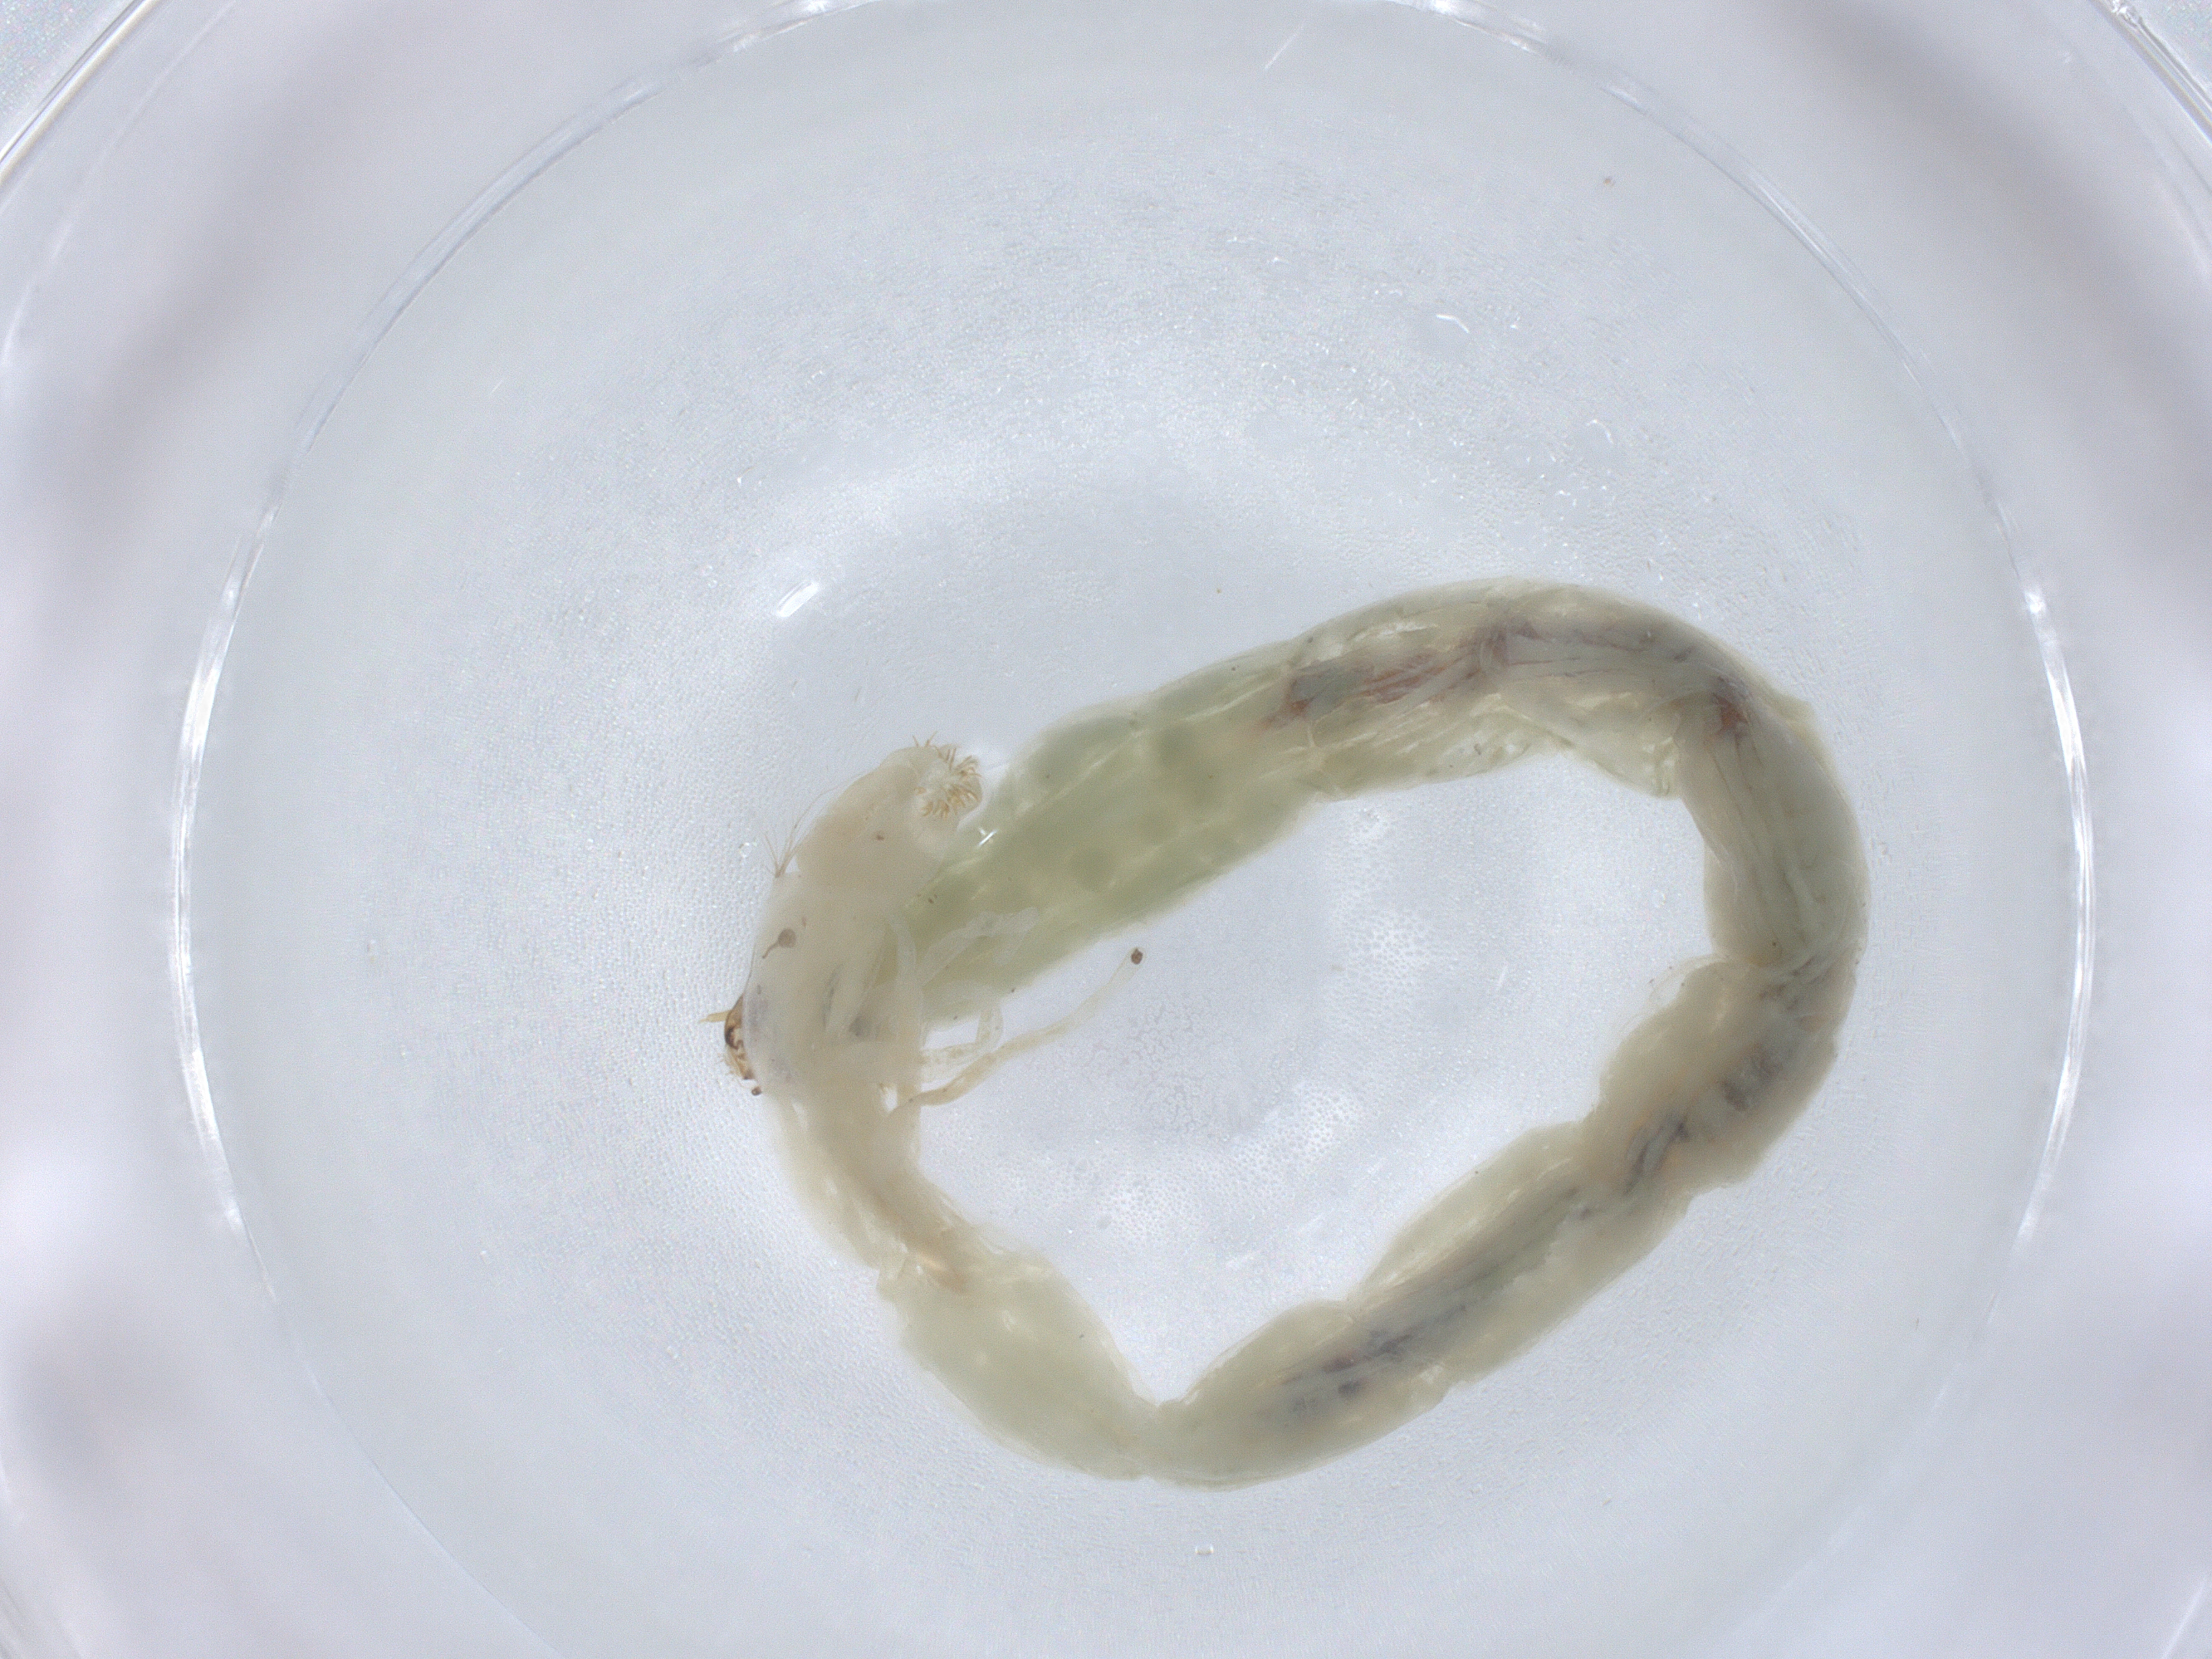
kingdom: Animalia
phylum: Arthropoda
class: Insecta
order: Diptera
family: Chironomidae
